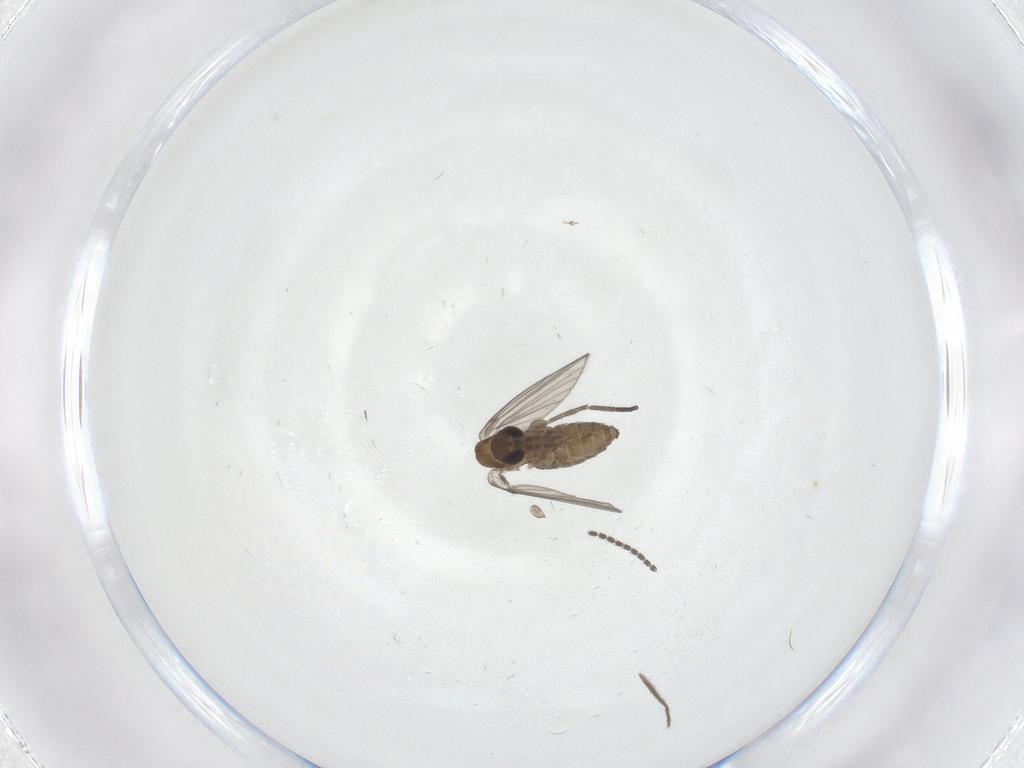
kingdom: Animalia
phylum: Arthropoda
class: Insecta
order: Diptera
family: Psychodidae
